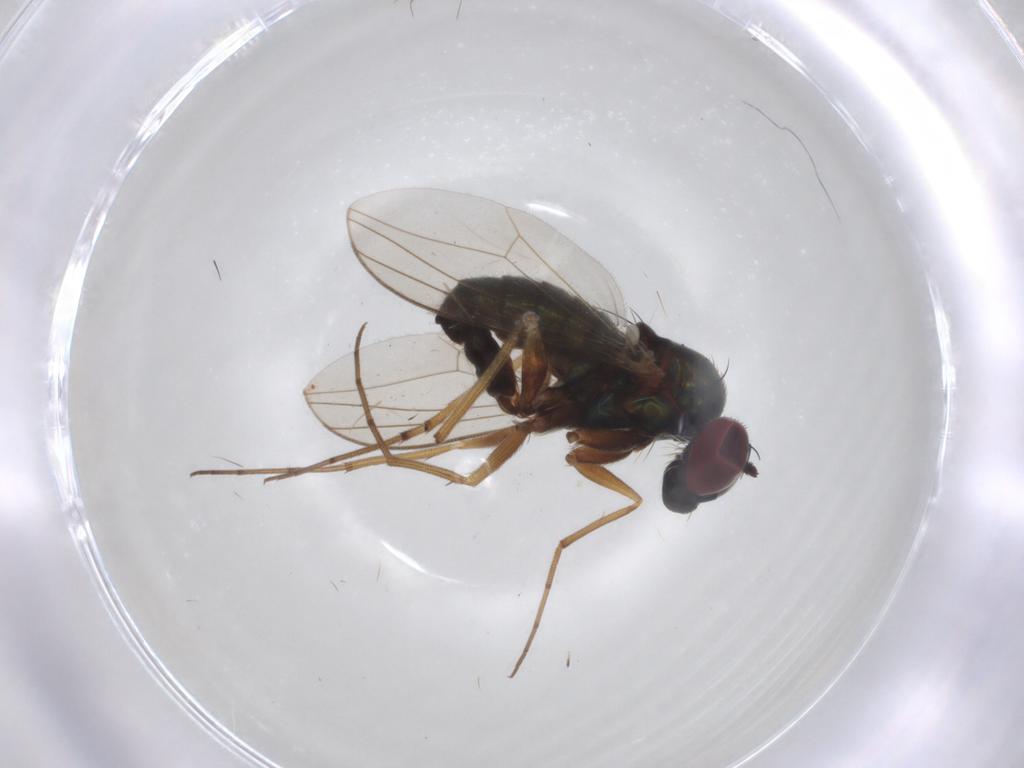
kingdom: Animalia
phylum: Arthropoda
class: Insecta
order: Diptera
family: Dolichopodidae
